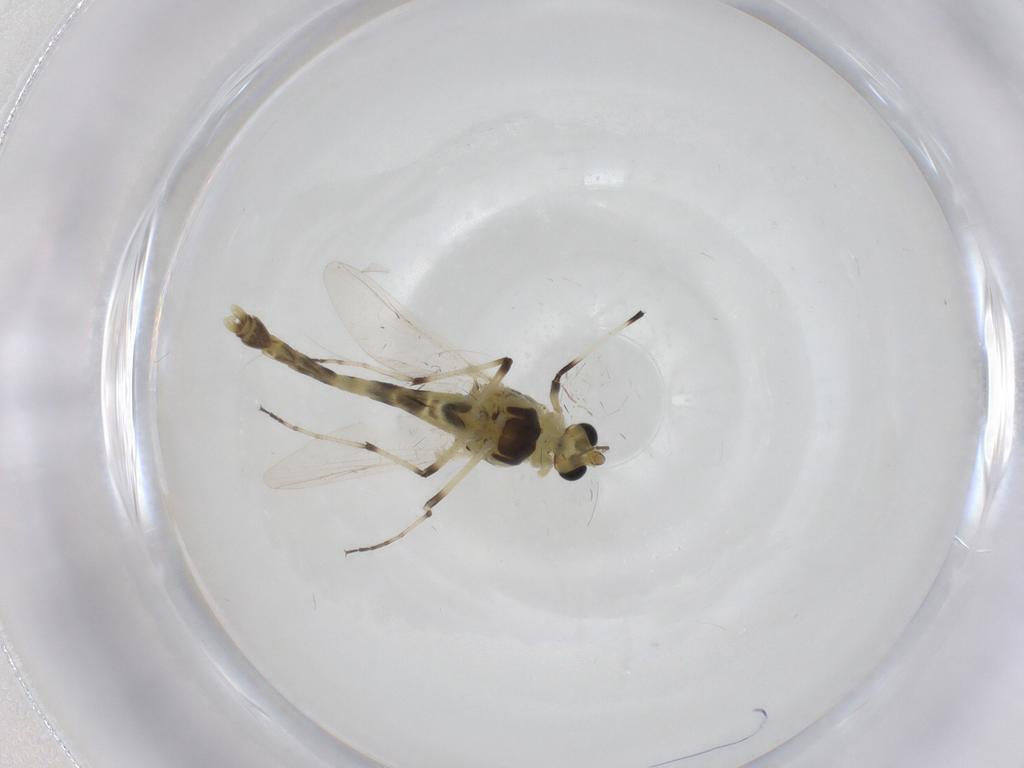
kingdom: Animalia
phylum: Arthropoda
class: Insecta
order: Diptera
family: Chironomidae
